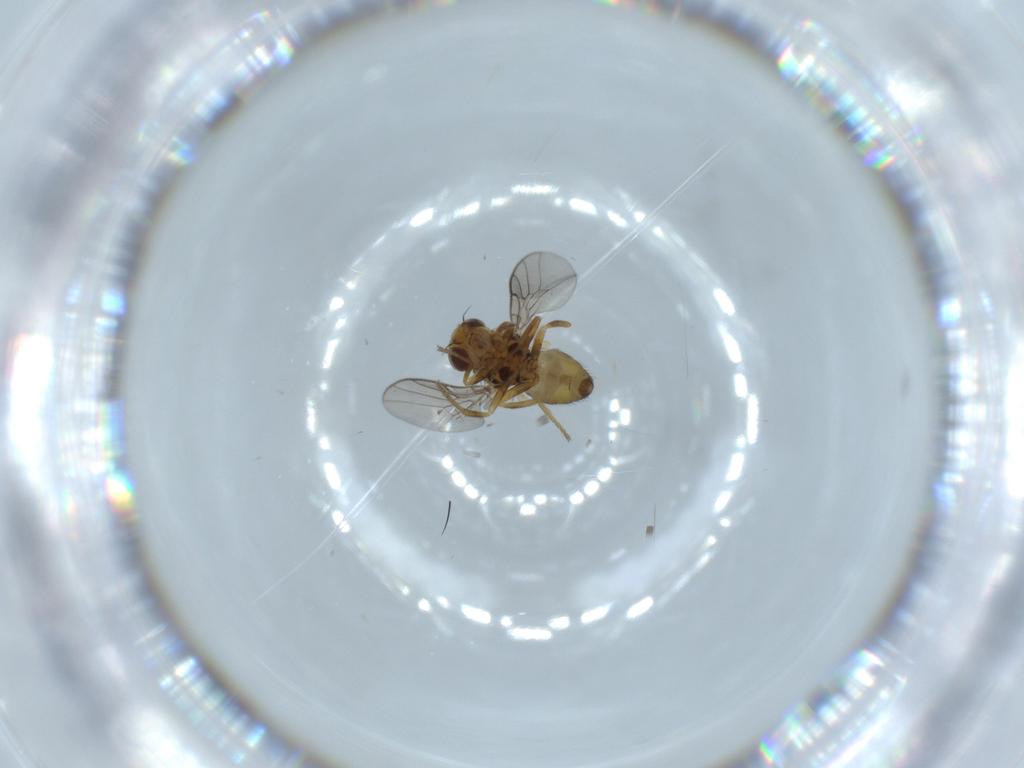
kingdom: Animalia
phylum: Arthropoda
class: Insecta
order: Diptera
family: Chloropidae
